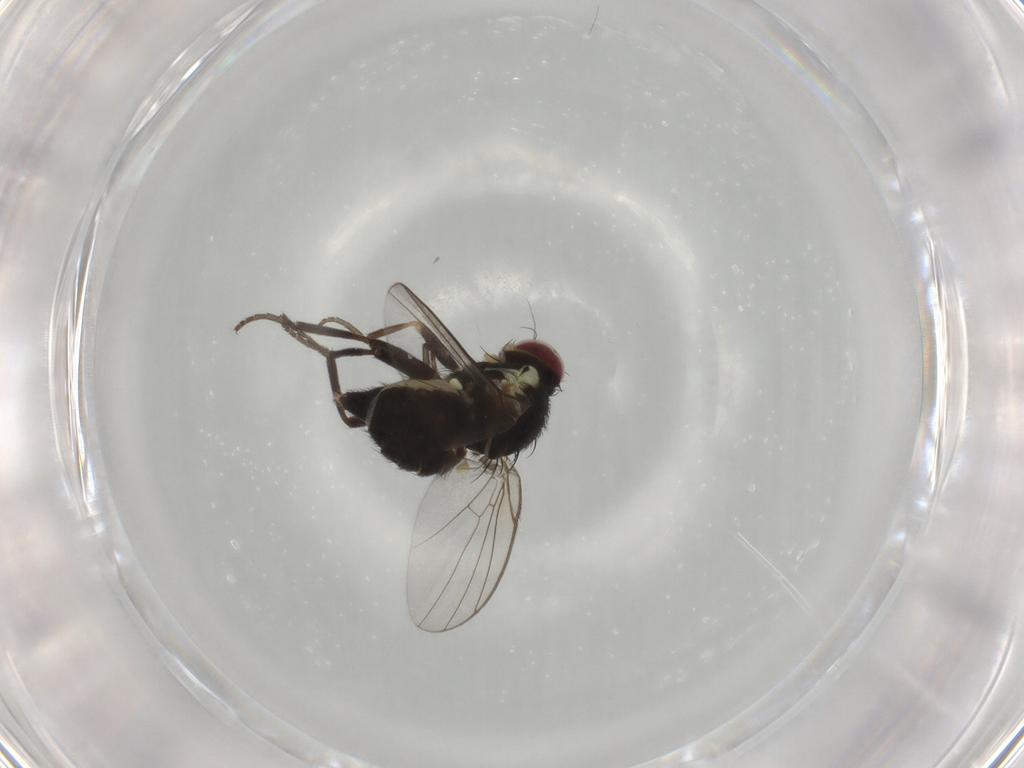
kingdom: Animalia
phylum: Arthropoda
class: Insecta
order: Diptera
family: Agromyzidae
